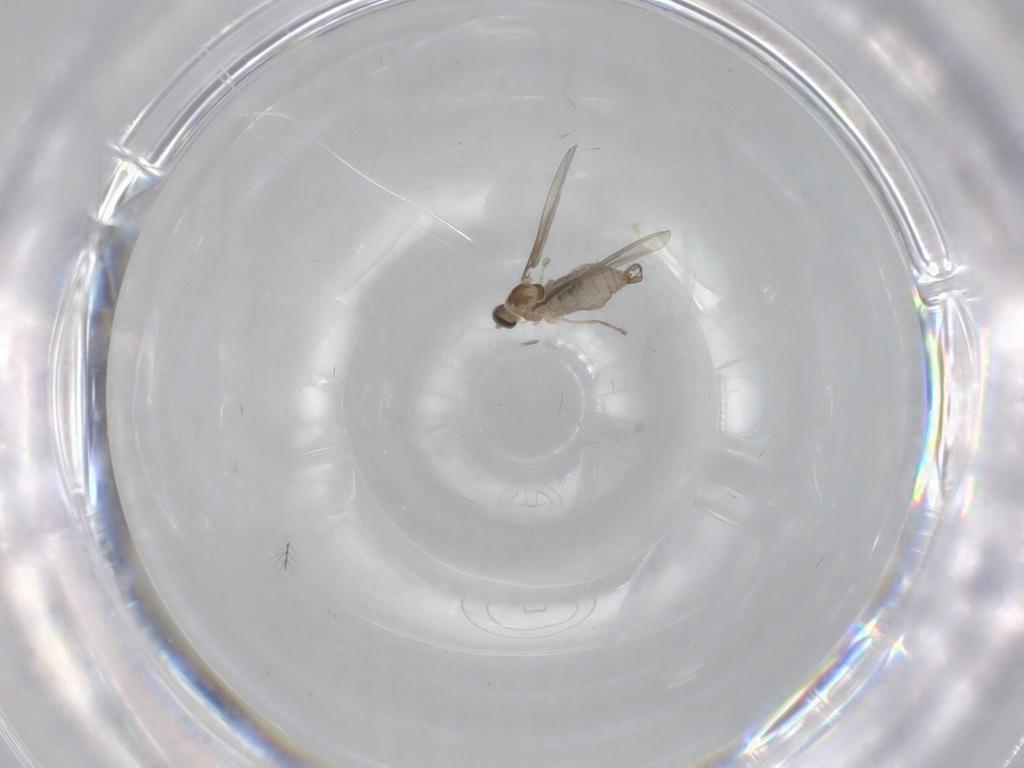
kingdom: Animalia
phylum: Arthropoda
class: Insecta
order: Diptera
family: Cecidomyiidae
